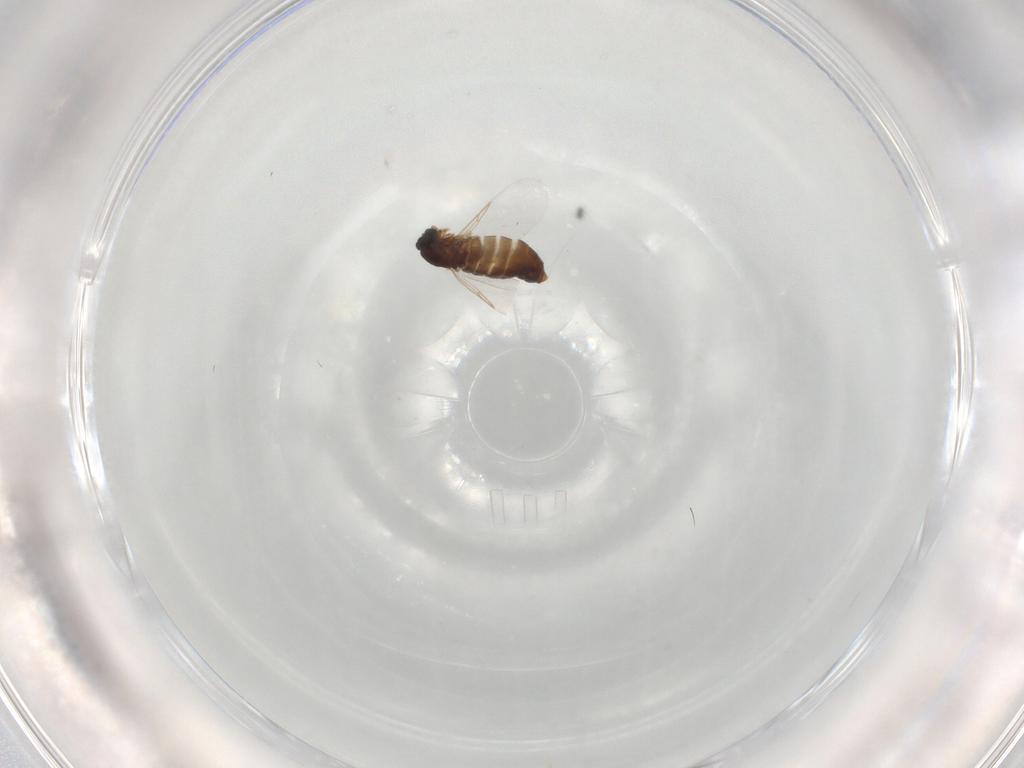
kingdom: Animalia
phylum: Arthropoda
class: Insecta
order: Diptera
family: Scatopsidae
